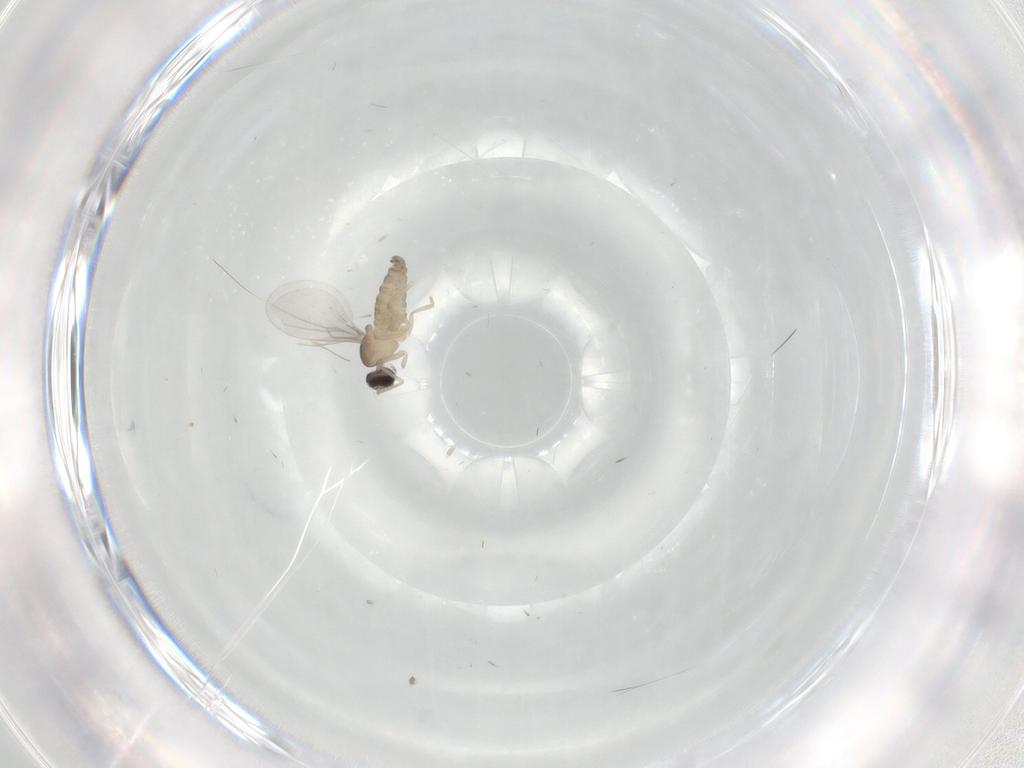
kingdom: Animalia
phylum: Arthropoda
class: Insecta
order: Diptera
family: Cecidomyiidae
